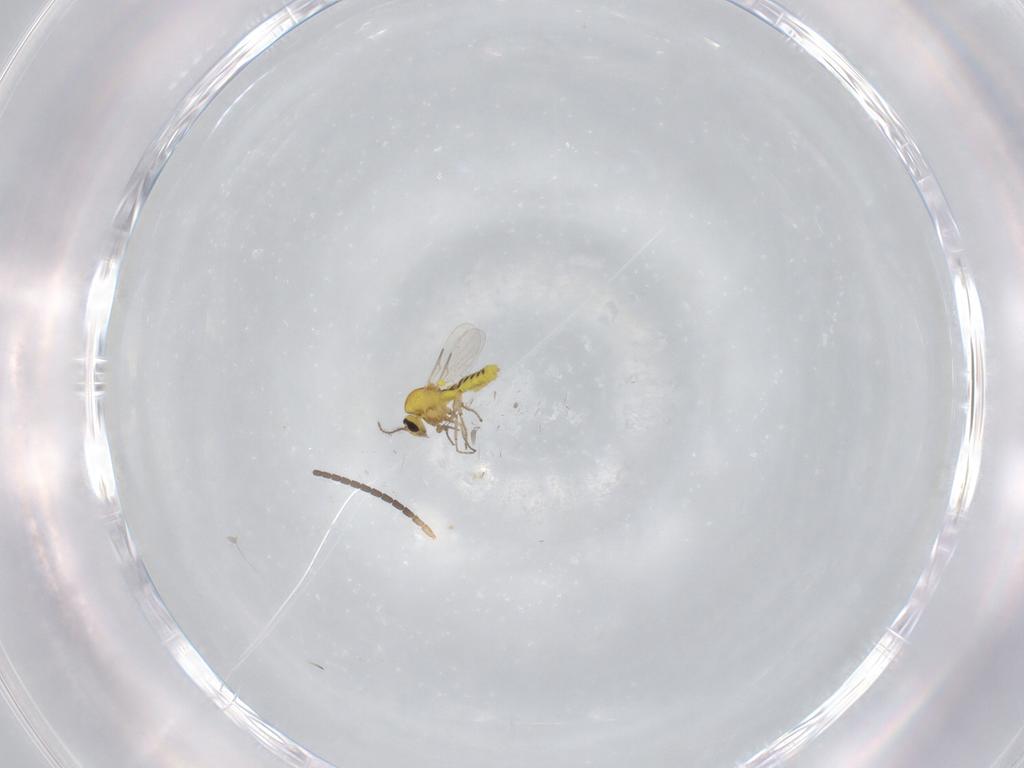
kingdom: Animalia
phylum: Arthropoda
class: Insecta
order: Diptera
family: Ceratopogonidae
